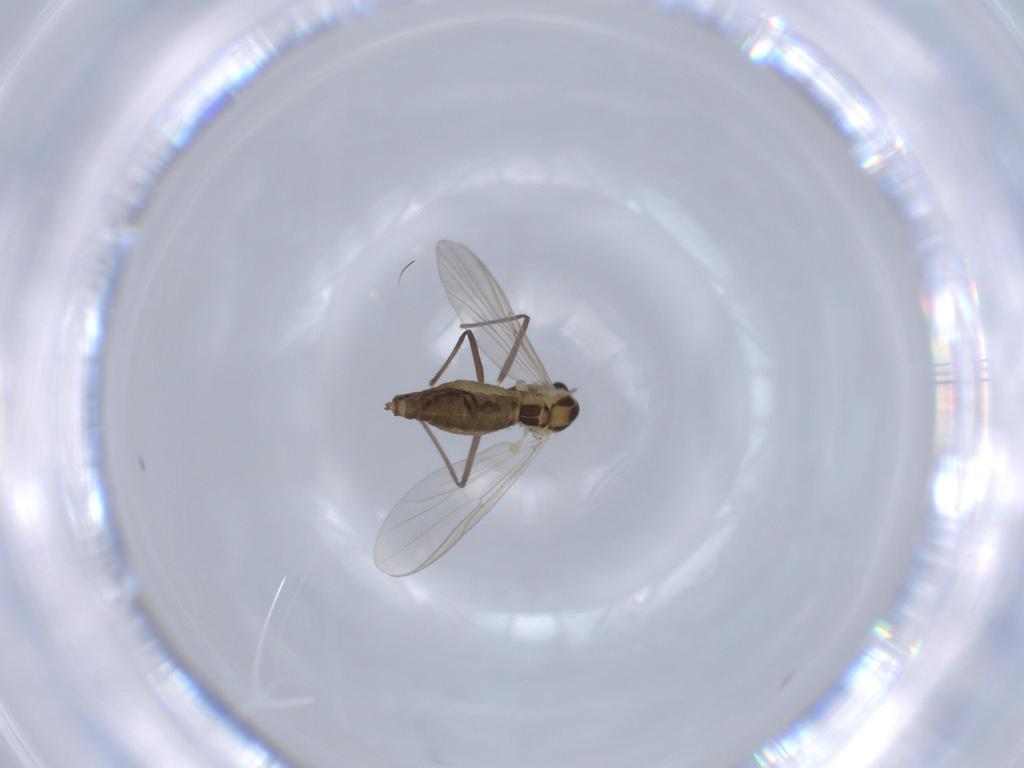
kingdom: Animalia
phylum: Arthropoda
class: Insecta
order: Diptera
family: Chironomidae
